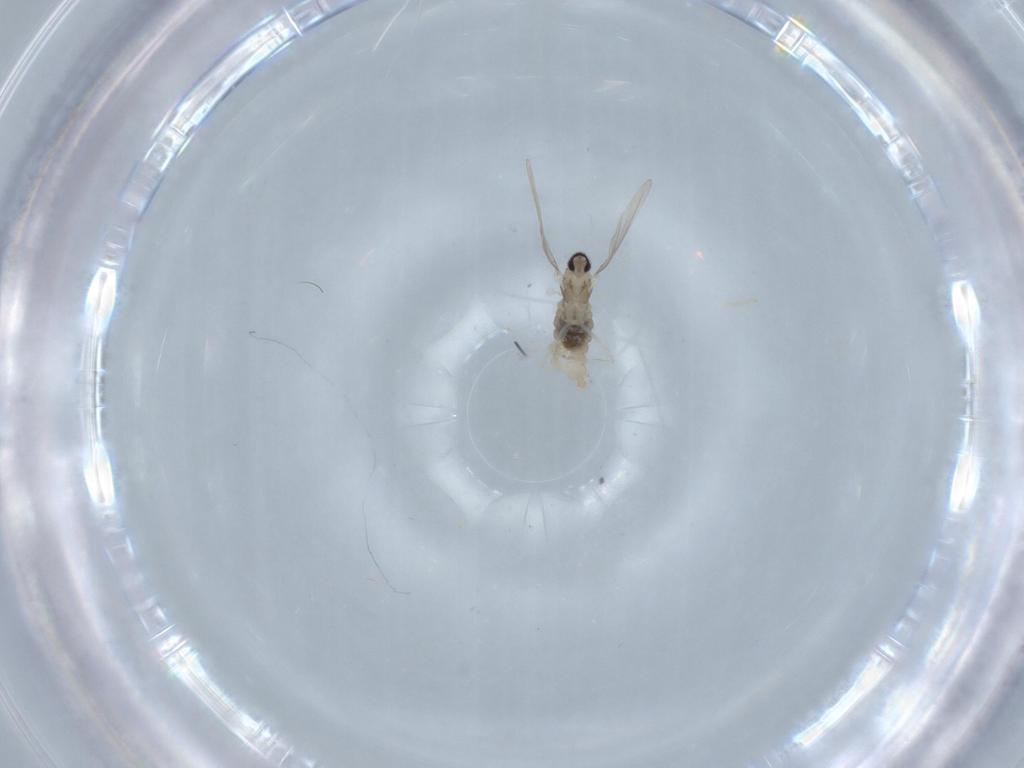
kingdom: Animalia
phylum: Arthropoda
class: Insecta
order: Diptera
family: Cecidomyiidae
